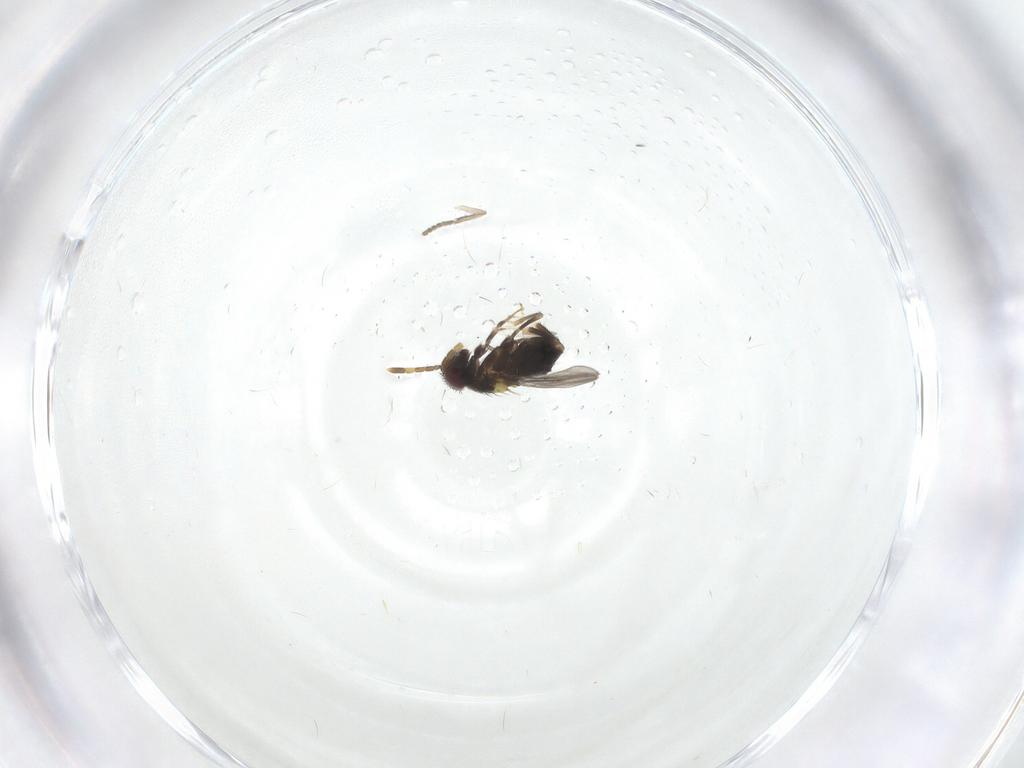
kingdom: Animalia
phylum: Arthropoda
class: Insecta
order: Diptera
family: Psychodidae
